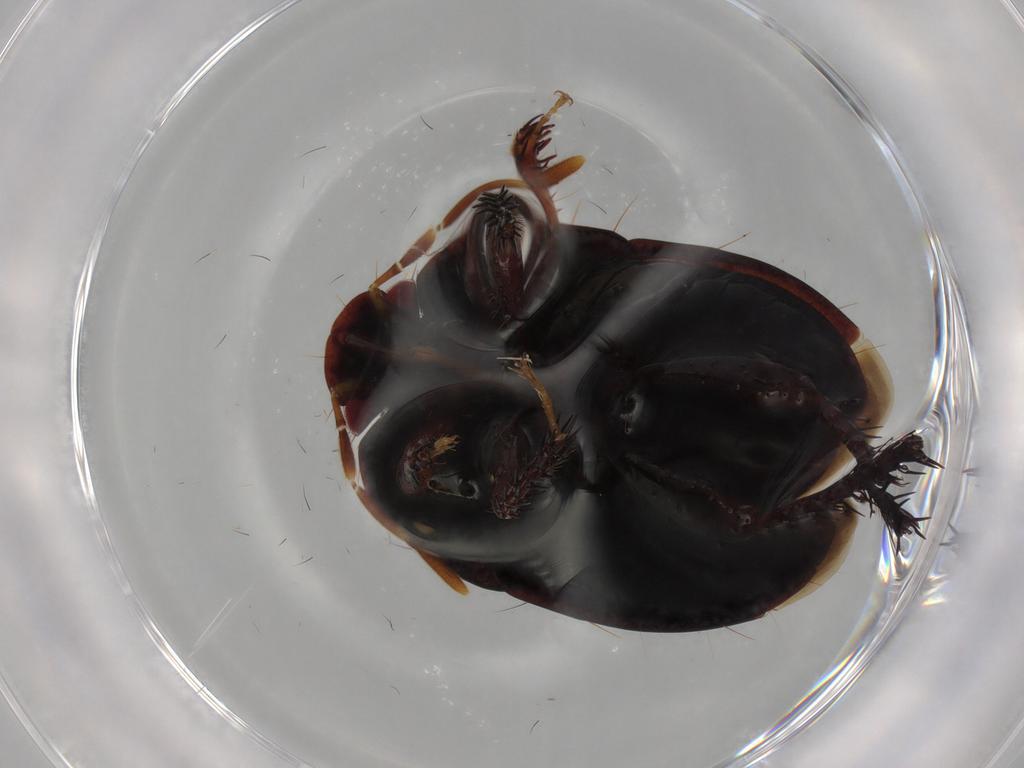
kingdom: Animalia
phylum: Arthropoda
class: Insecta
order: Hemiptera
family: Cydnidae
